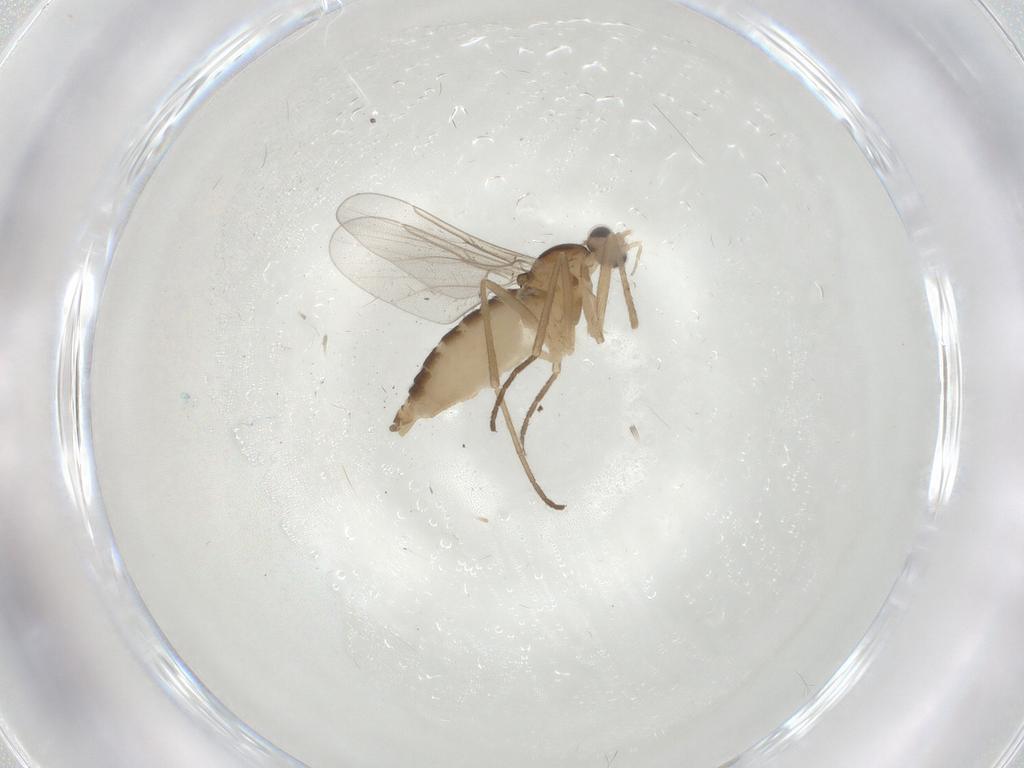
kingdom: Animalia
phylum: Arthropoda
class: Insecta
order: Diptera
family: Cecidomyiidae
